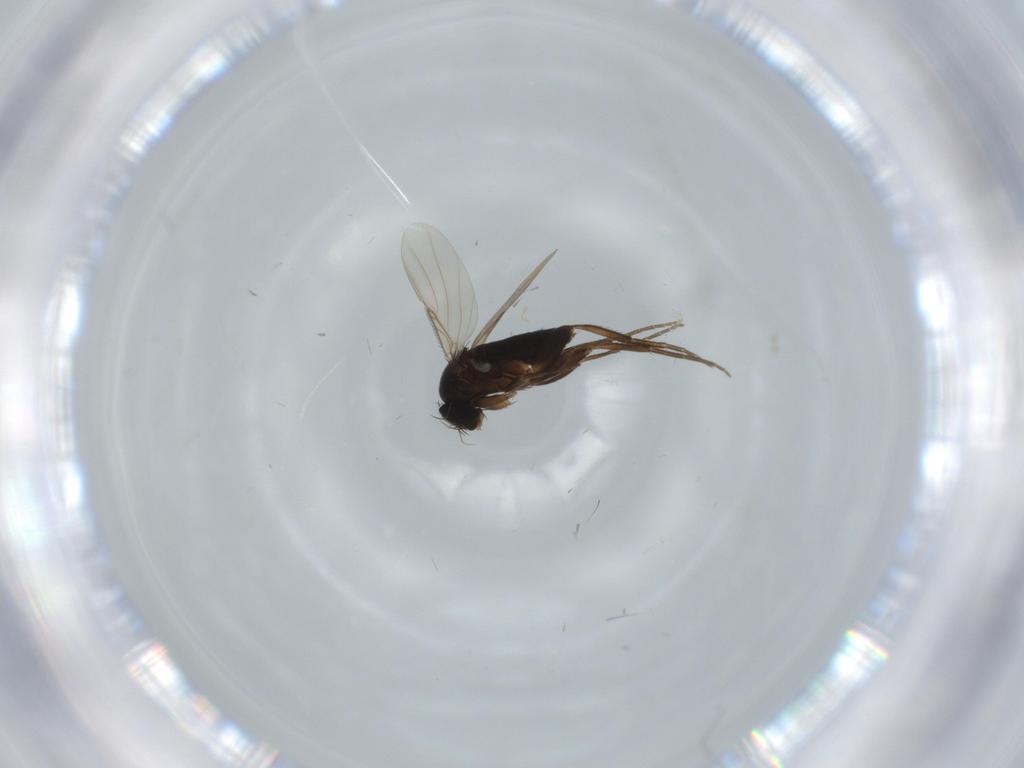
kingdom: Animalia
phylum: Arthropoda
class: Insecta
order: Diptera
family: Phoridae
